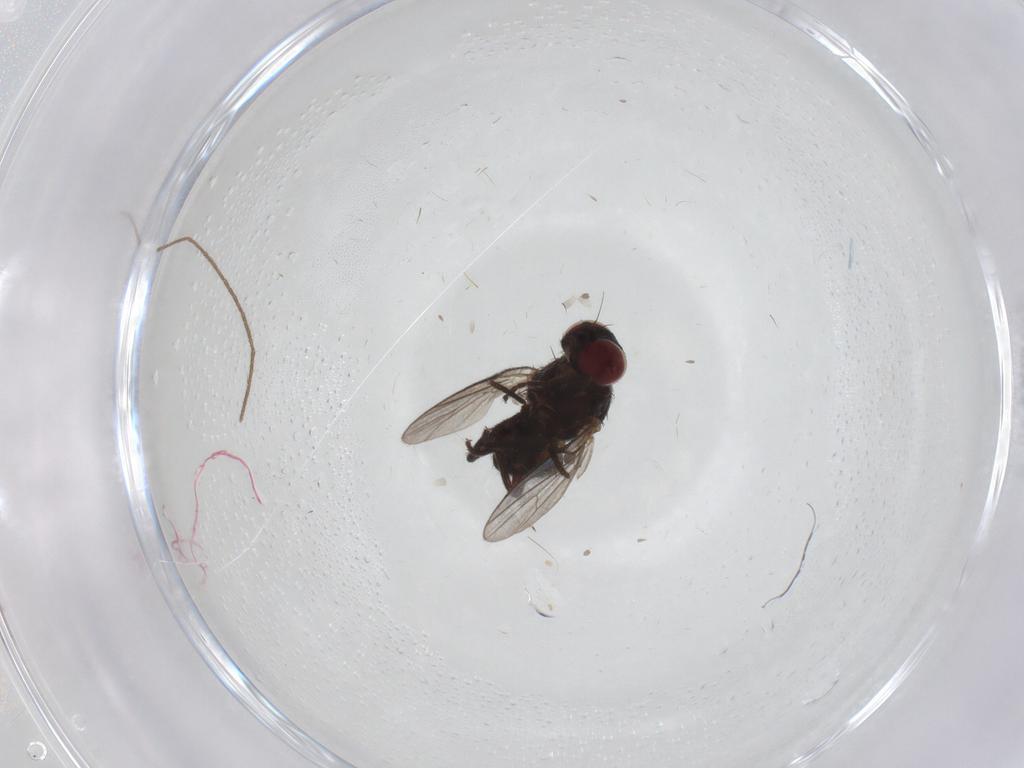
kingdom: Animalia
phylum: Arthropoda
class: Insecta
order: Diptera
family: Agromyzidae
